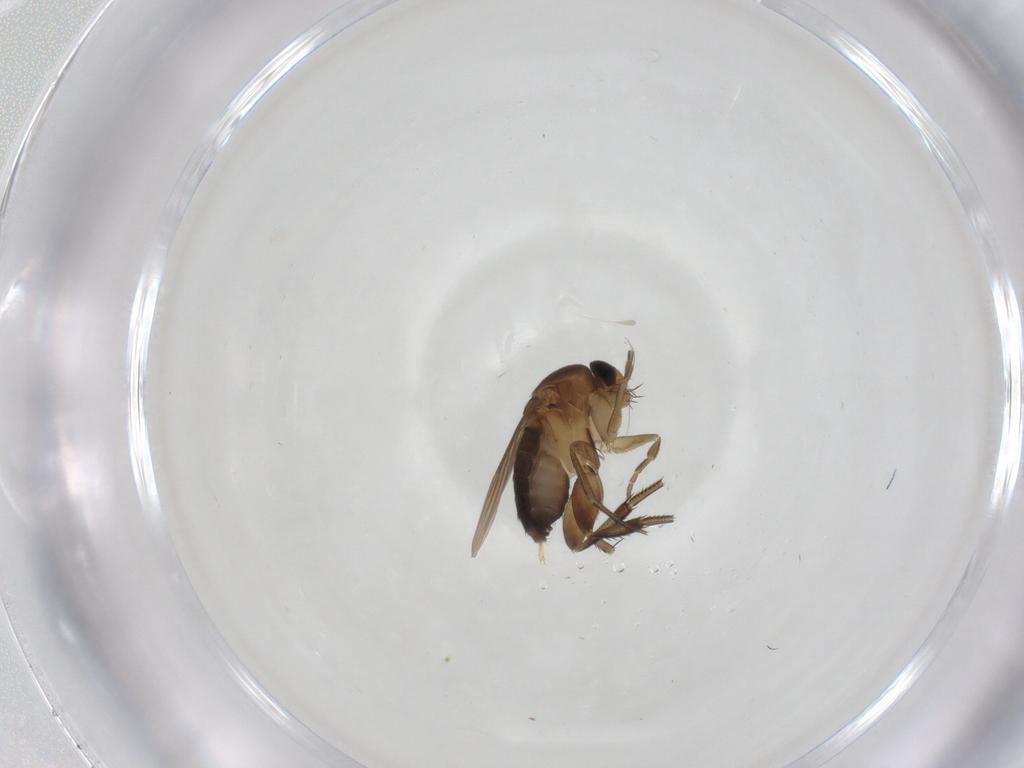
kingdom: Animalia
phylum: Arthropoda
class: Insecta
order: Diptera
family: Phoridae
